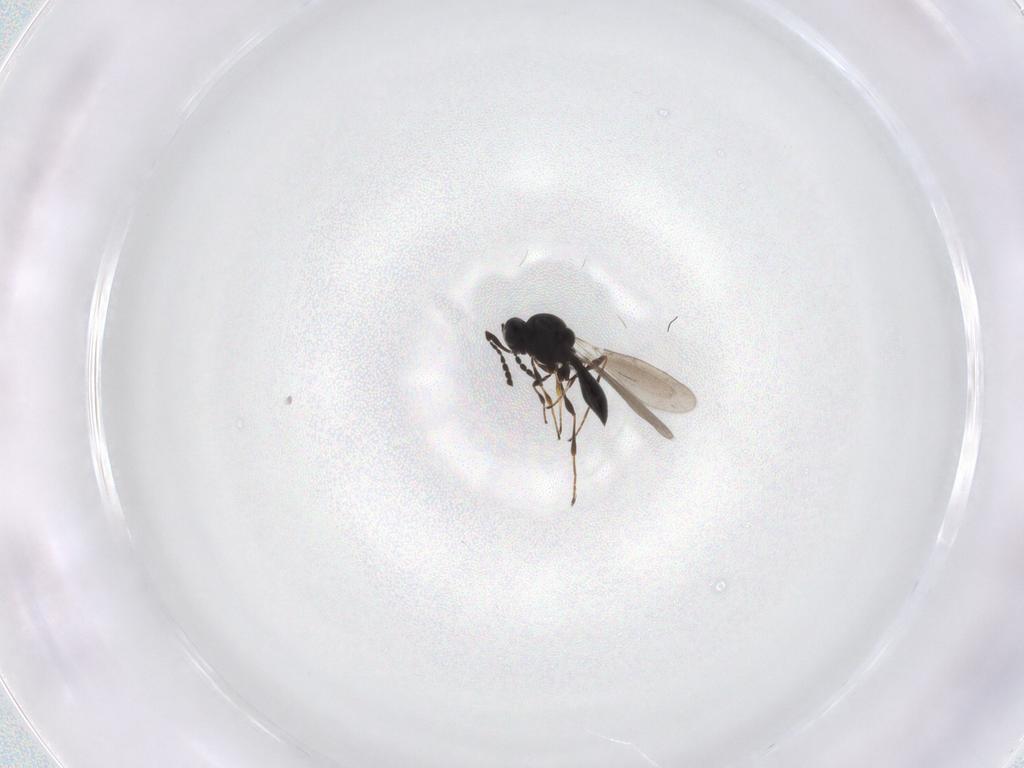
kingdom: Animalia
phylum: Arthropoda
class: Insecta
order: Hymenoptera
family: Platygastridae
